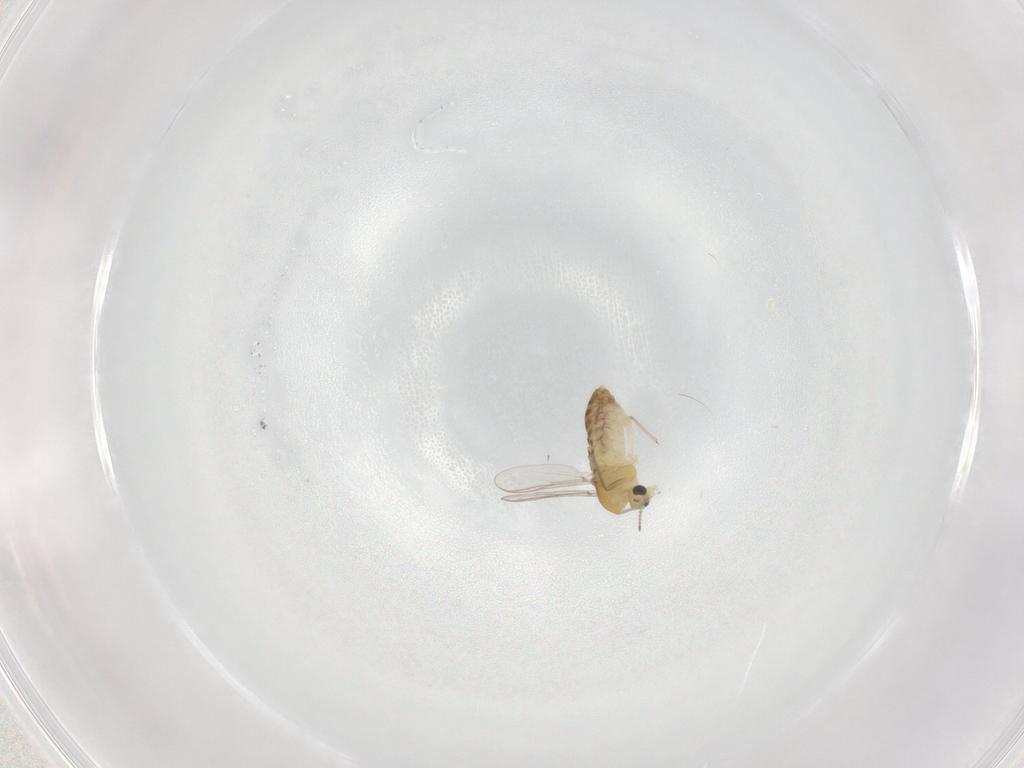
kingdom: Animalia
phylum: Arthropoda
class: Insecta
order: Diptera
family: Chironomidae
